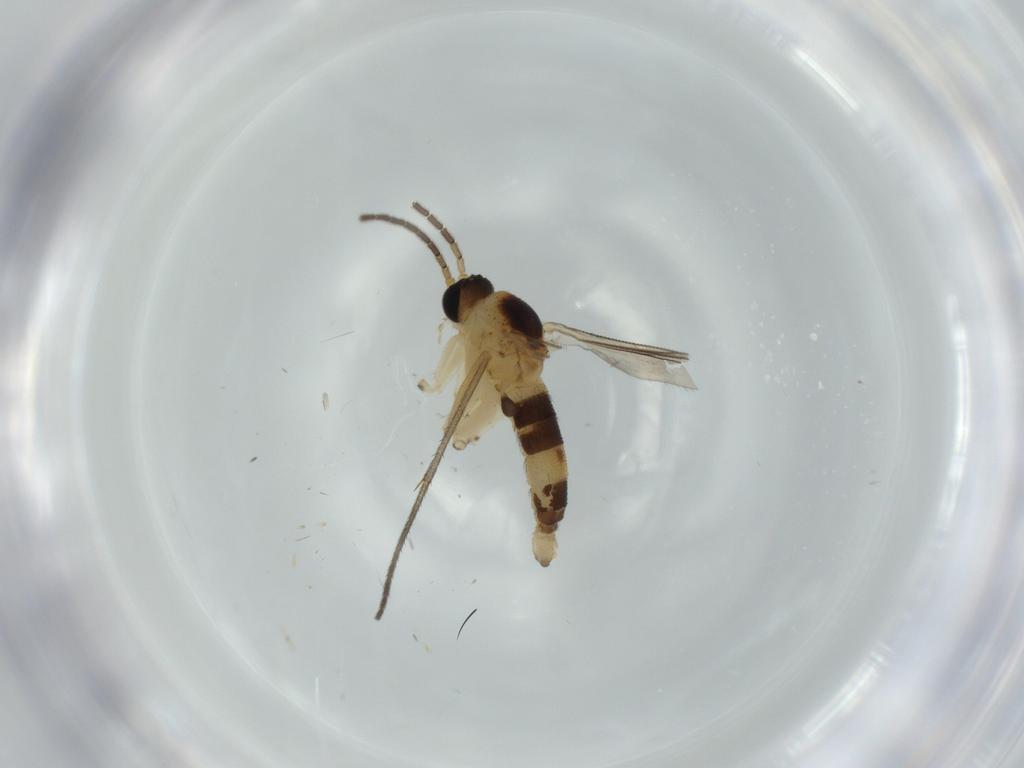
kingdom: Animalia
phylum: Arthropoda
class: Insecta
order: Diptera
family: Sciaridae
